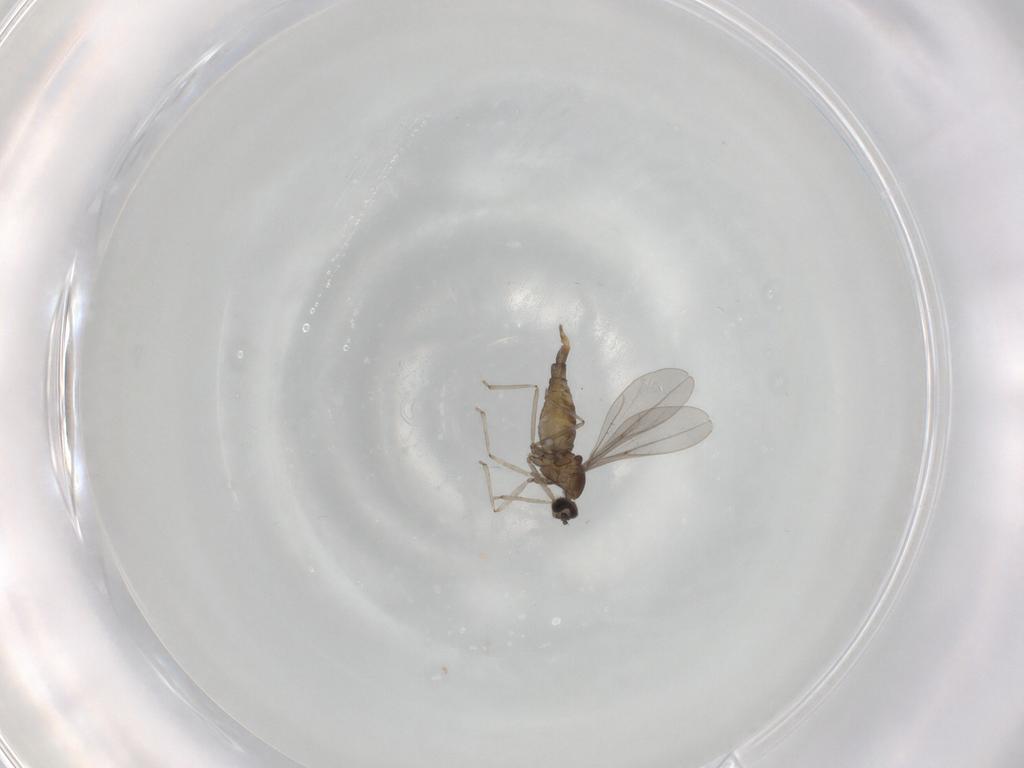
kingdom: Animalia
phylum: Arthropoda
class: Insecta
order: Diptera
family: Cecidomyiidae
